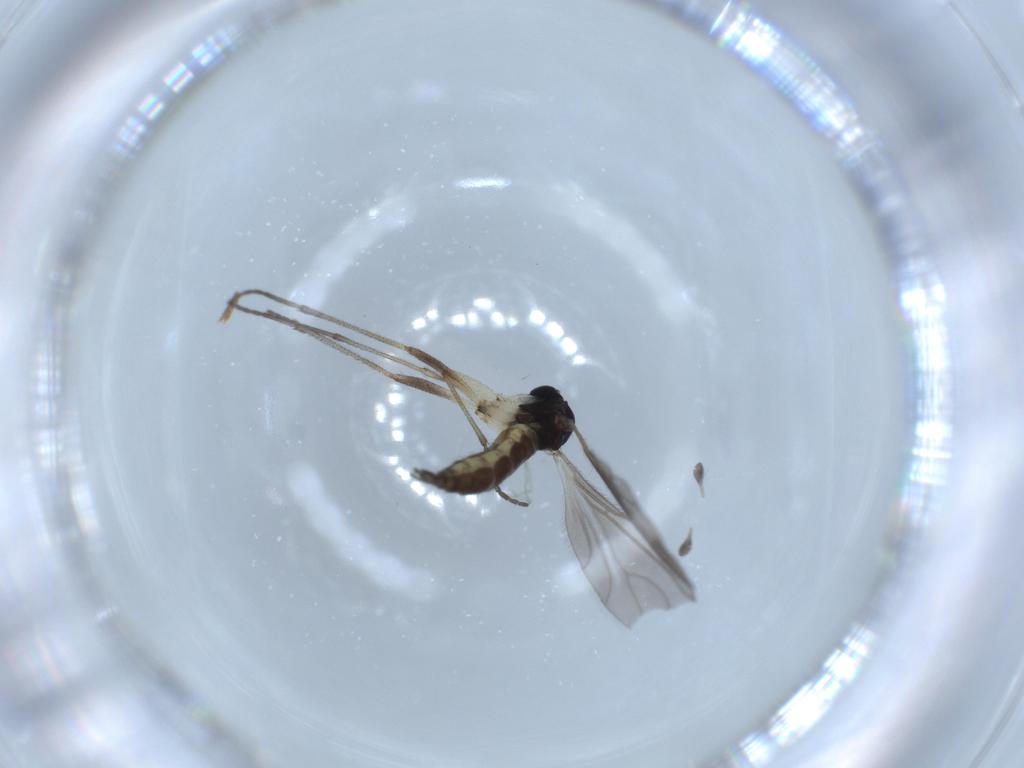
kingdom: Animalia
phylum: Arthropoda
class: Insecta
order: Diptera
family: Sciaridae
